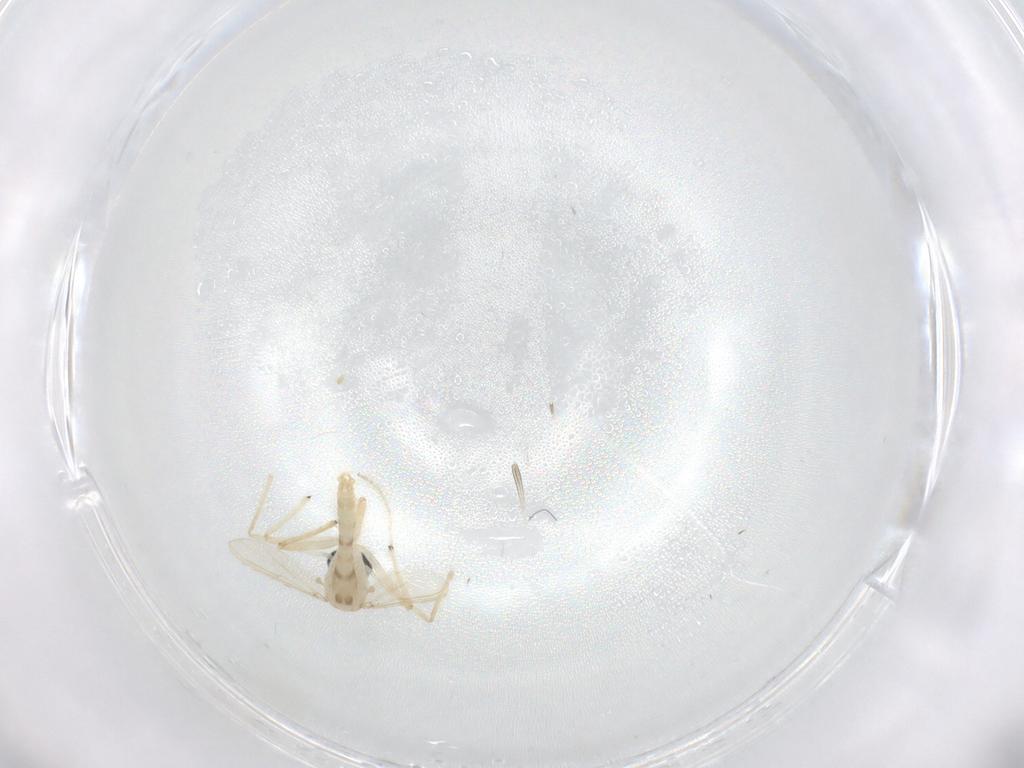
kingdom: Animalia
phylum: Arthropoda
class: Insecta
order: Diptera
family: Chironomidae
